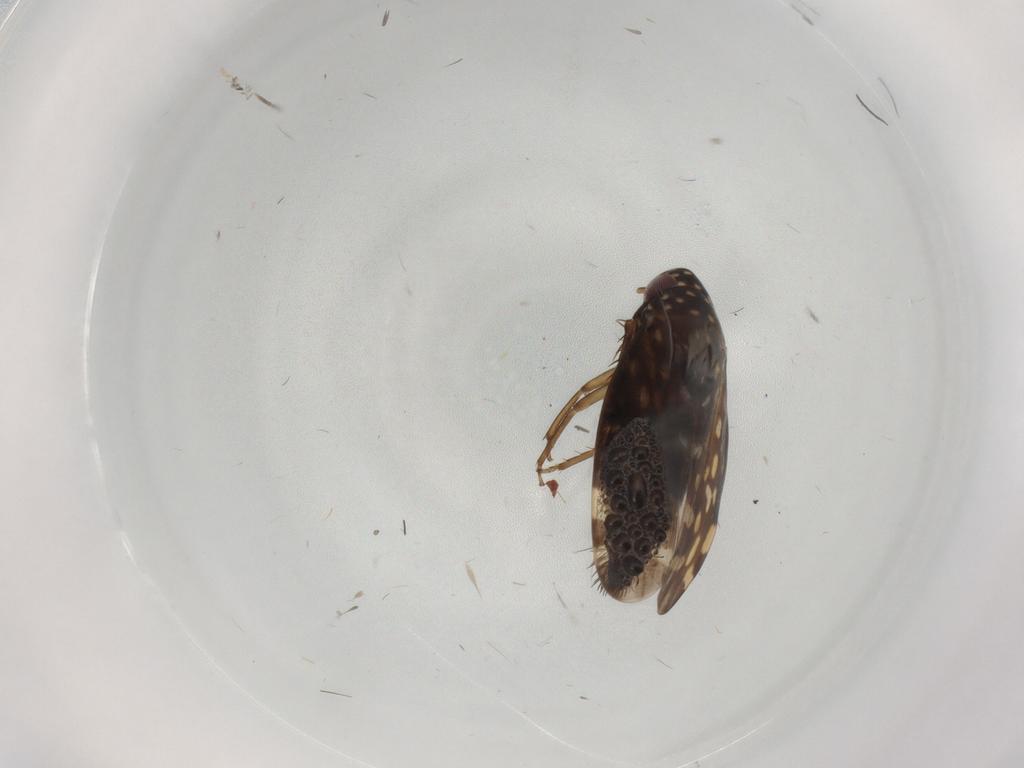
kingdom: Animalia
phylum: Arthropoda
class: Insecta
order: Hemiptera
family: Cicadellidae
